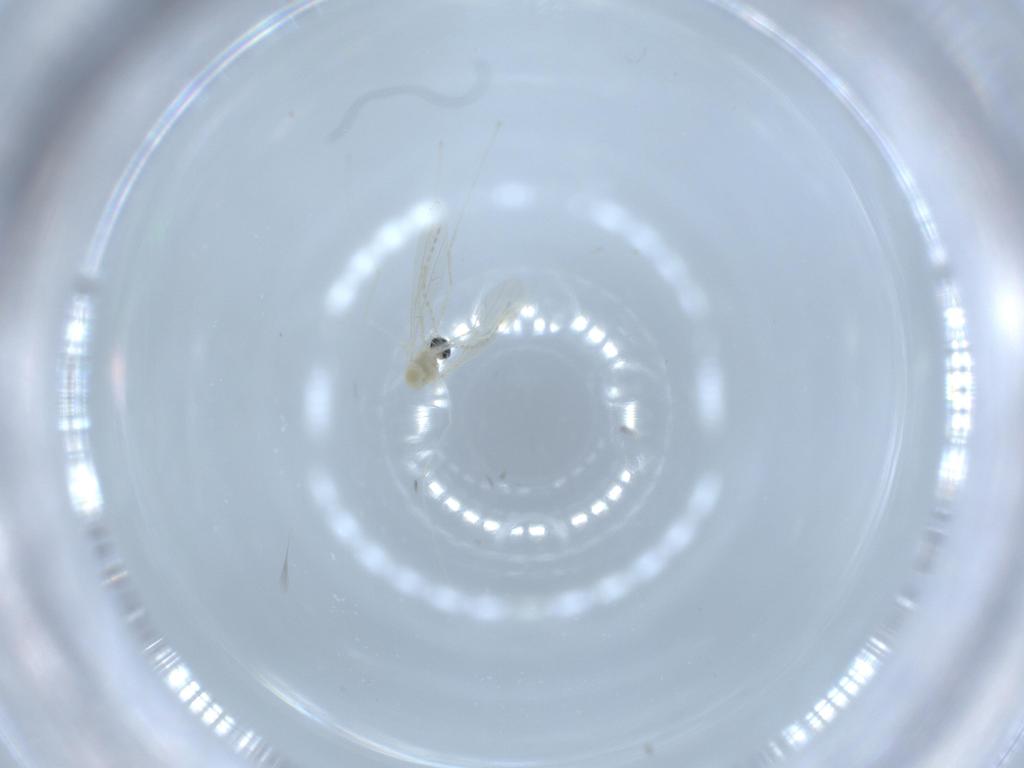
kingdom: Animalia
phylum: Arthropoda
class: Insecta
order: Diptera
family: Cecidomyiidae
